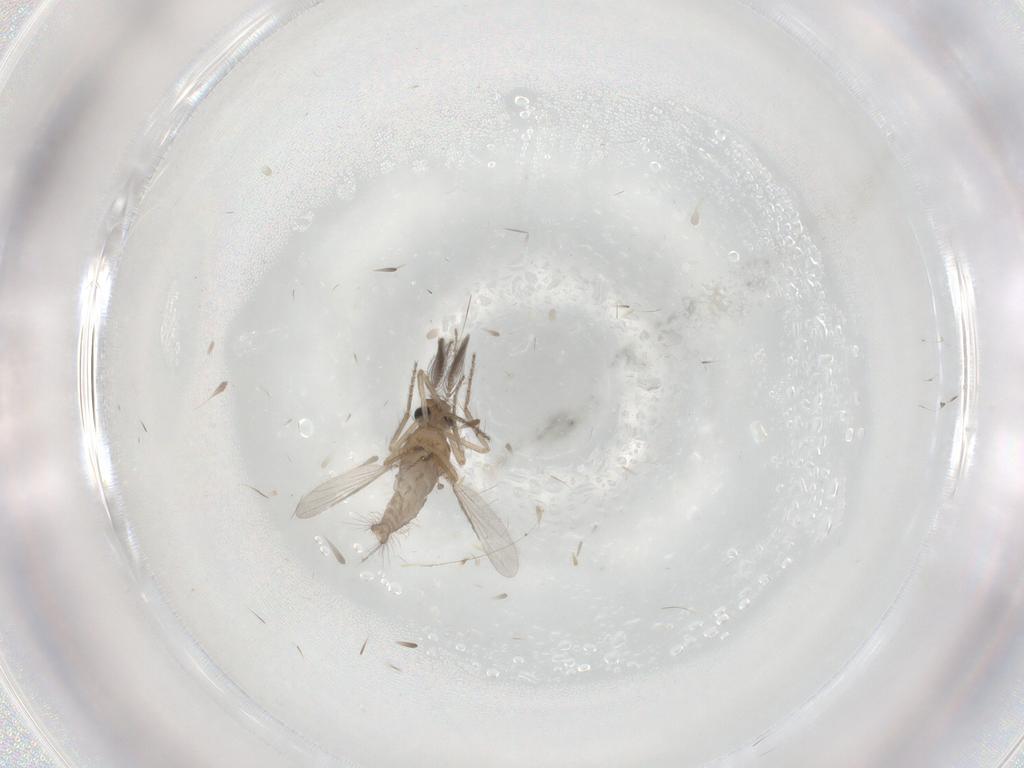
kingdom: Animalia
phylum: Arthropoda
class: Insecta
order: Diptera
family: Ceratopogonidae
